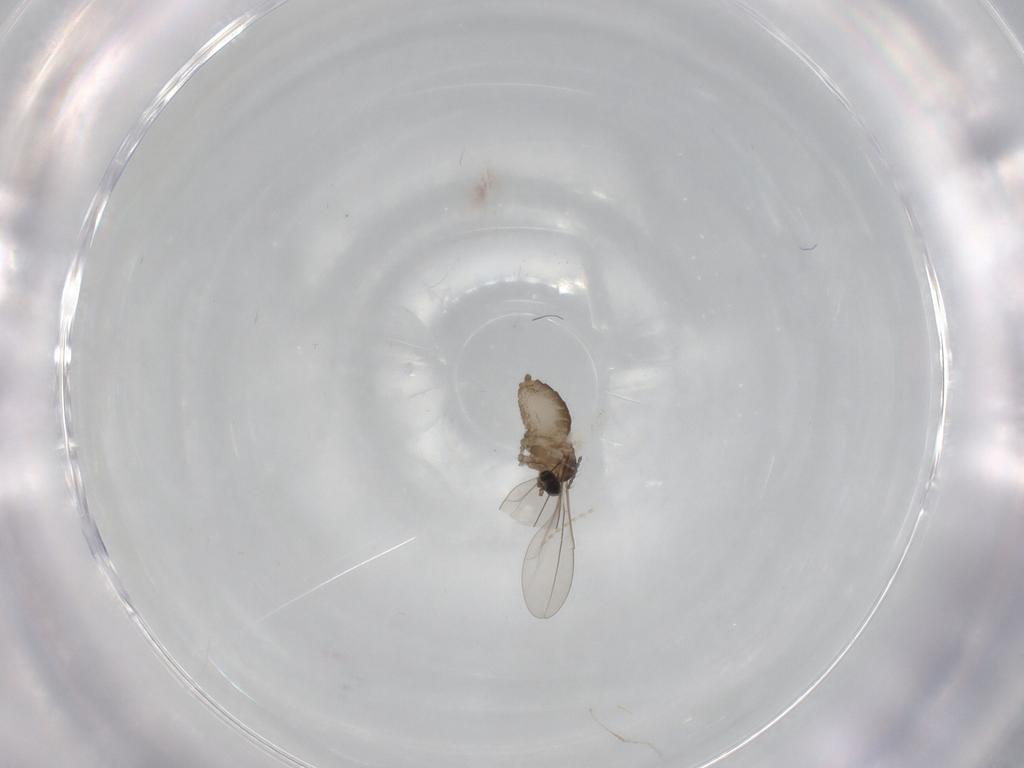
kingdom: Animalia
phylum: Arthropoda
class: Insecta
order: Diptera
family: Cecidomyiidae
